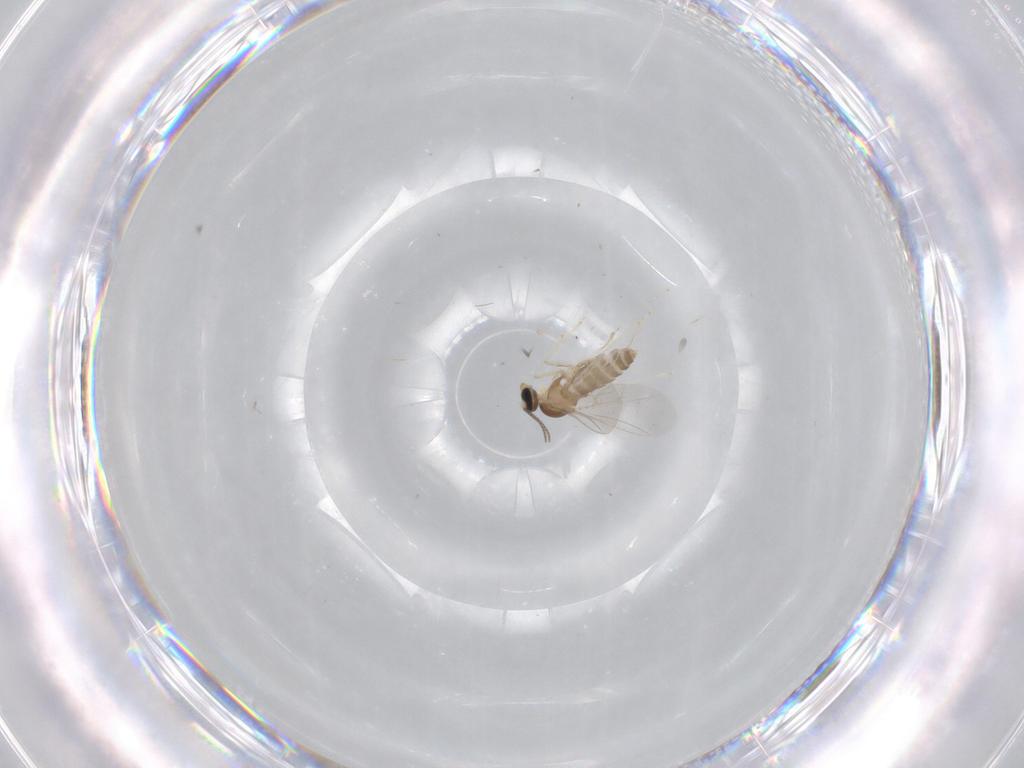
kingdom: Animalia
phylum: Arthropoda
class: Insecta
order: Diptera
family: Cecidomyiidae
